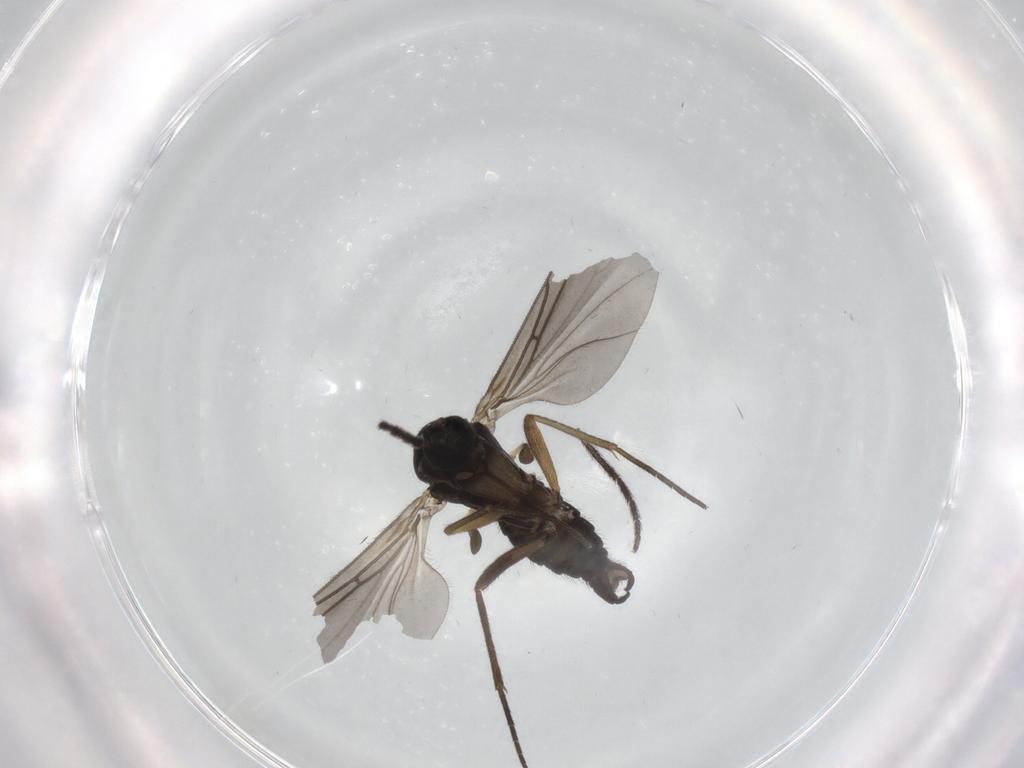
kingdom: Animalia
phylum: Arthropoda
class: Insecta
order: Diptera
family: Sciaridae
